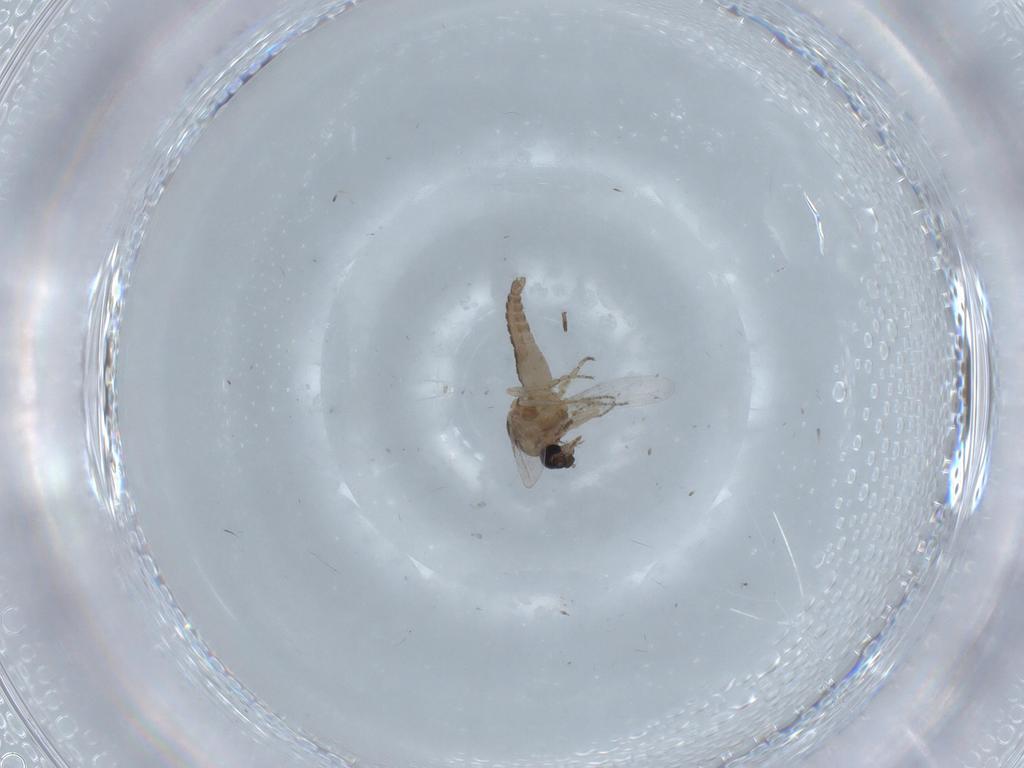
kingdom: Animalia
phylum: Arthropoda
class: Insecta
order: Diptera
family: Ceratopogonidae
